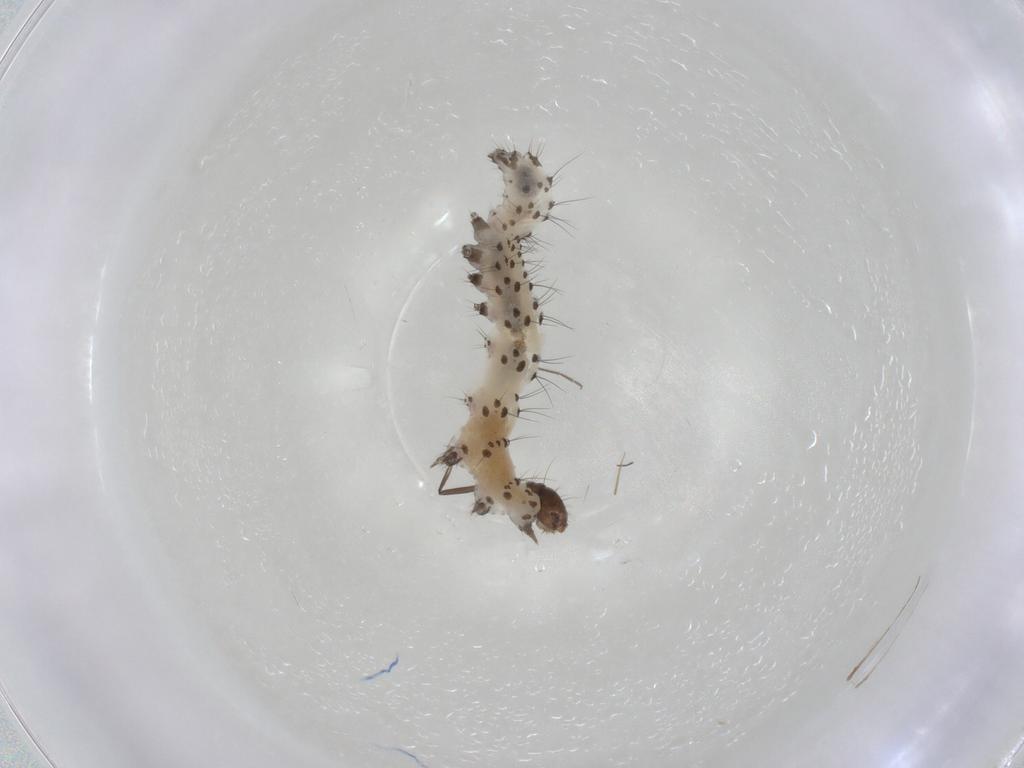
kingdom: Animalia
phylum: Arthropoda
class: Insecta
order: Lepidoptera
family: Noctuidae
